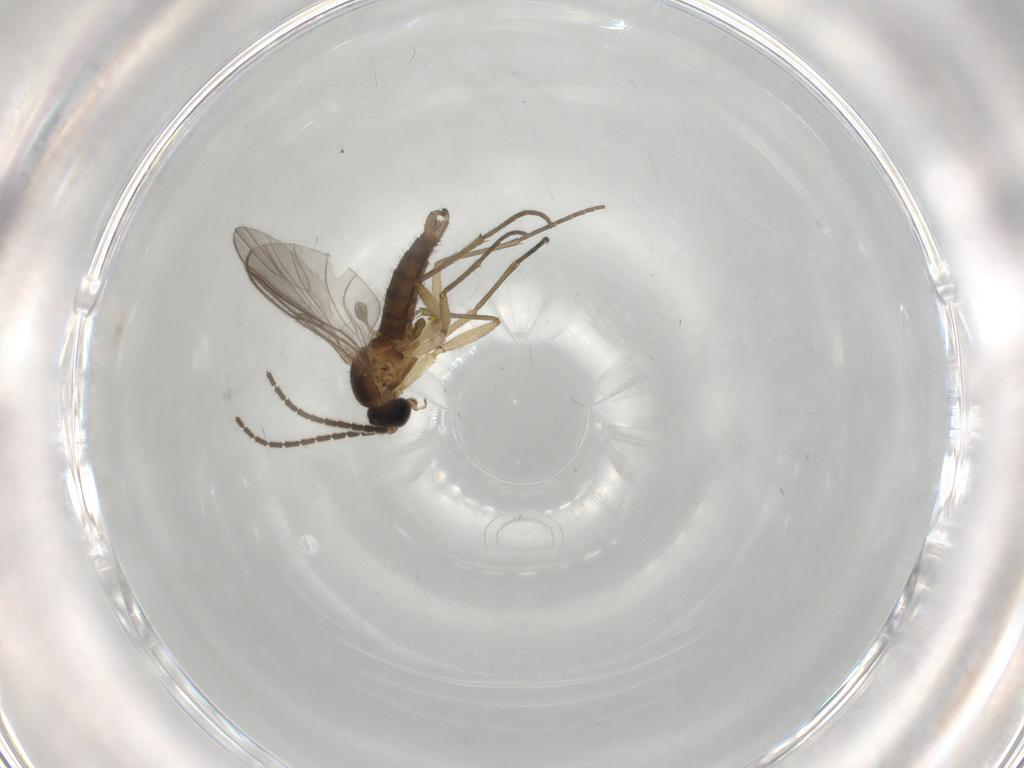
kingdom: Animalia
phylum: Arthropoda
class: Insecta
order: Diptera
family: Sciaridae
